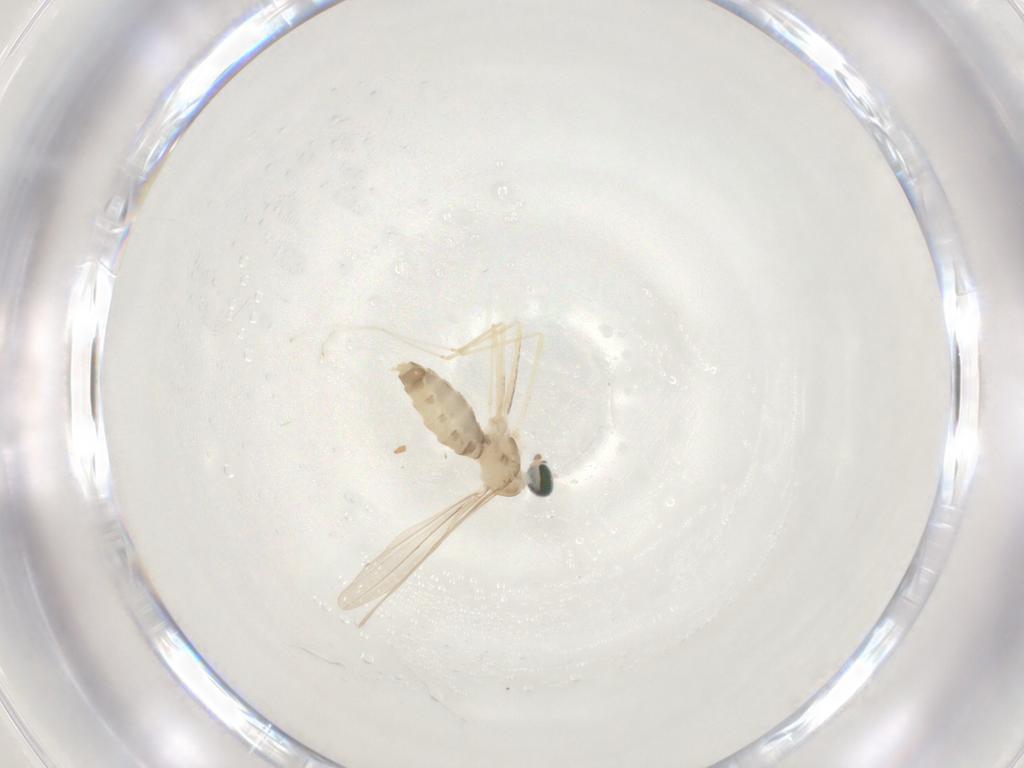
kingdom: Animalia
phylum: Arthropoda
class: Insecta
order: Diptera
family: Cecidomyiidae
